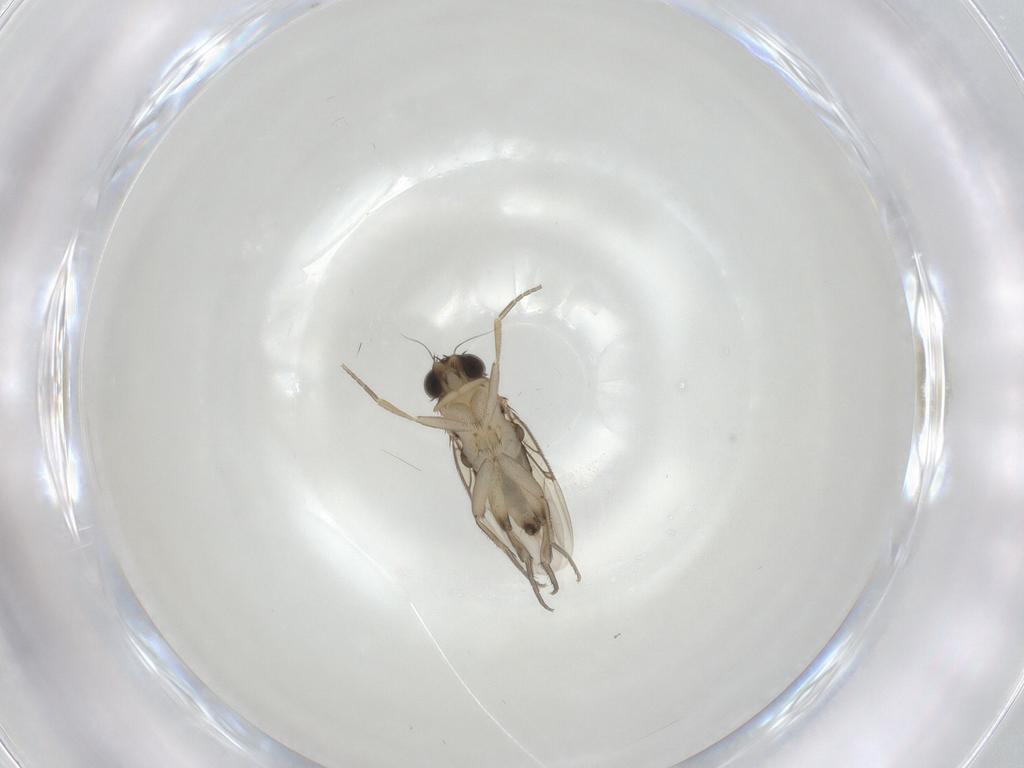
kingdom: Animalia
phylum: Arthropoda
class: Insecta
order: Diptera
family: Phoridae
